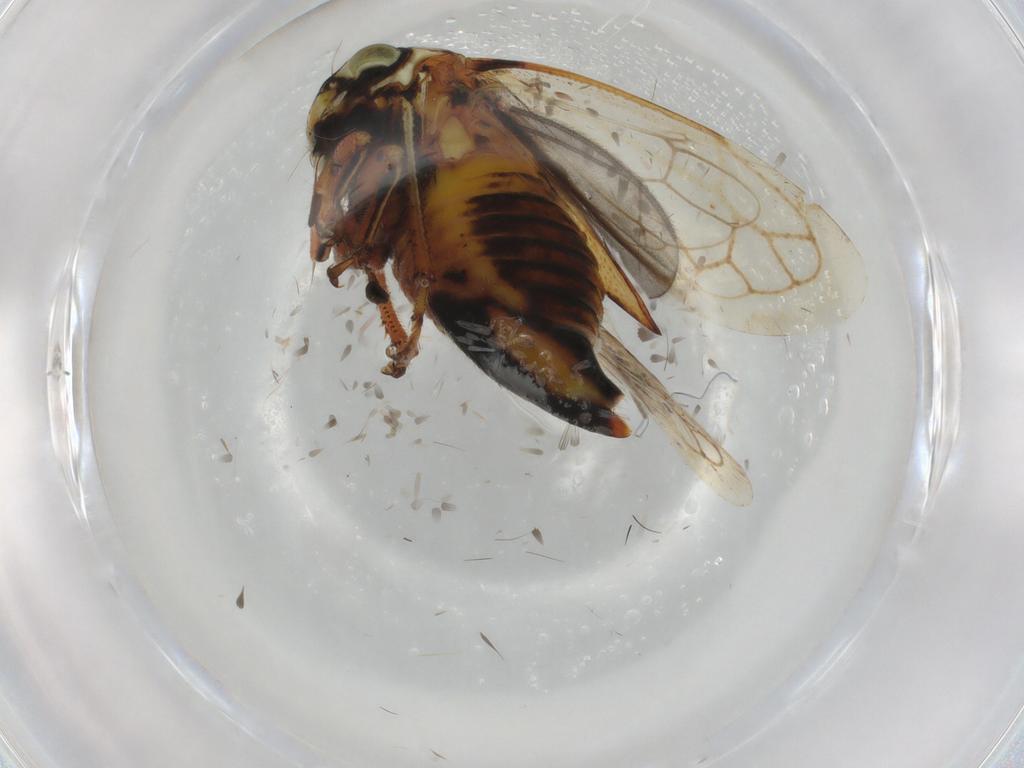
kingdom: Animalia
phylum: Arthropoda
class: Insecta
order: Hemiptera
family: Membracidae
